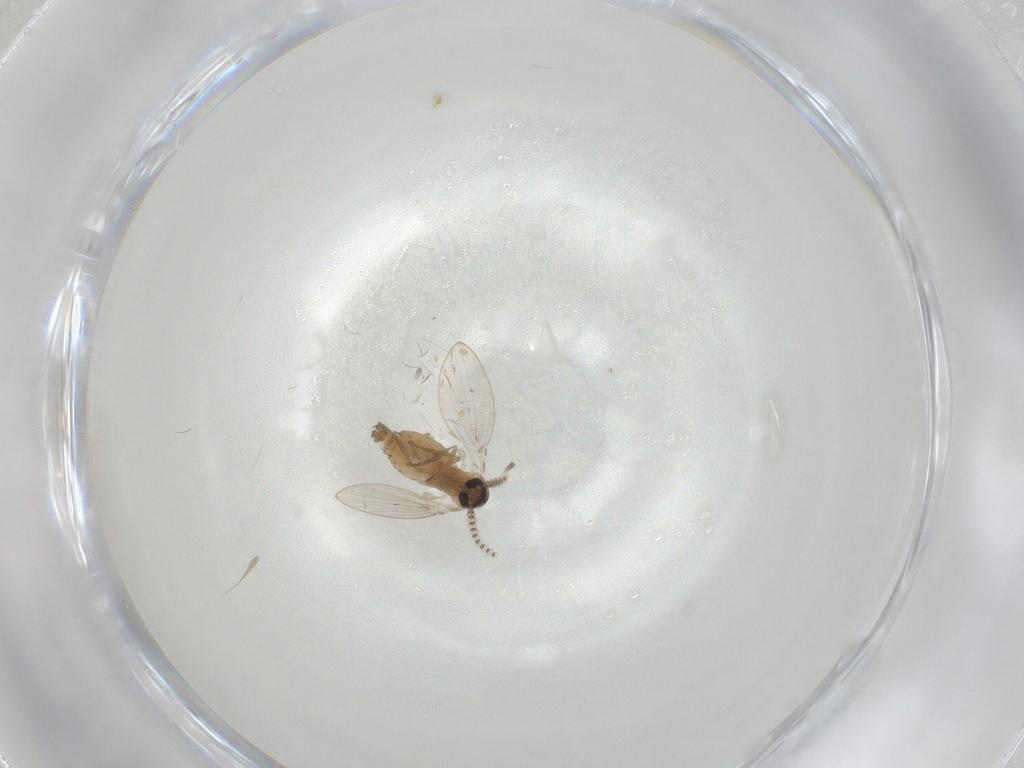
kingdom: Animalia
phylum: Arthropoda
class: Insecta
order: Diptera
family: Psychodidae
